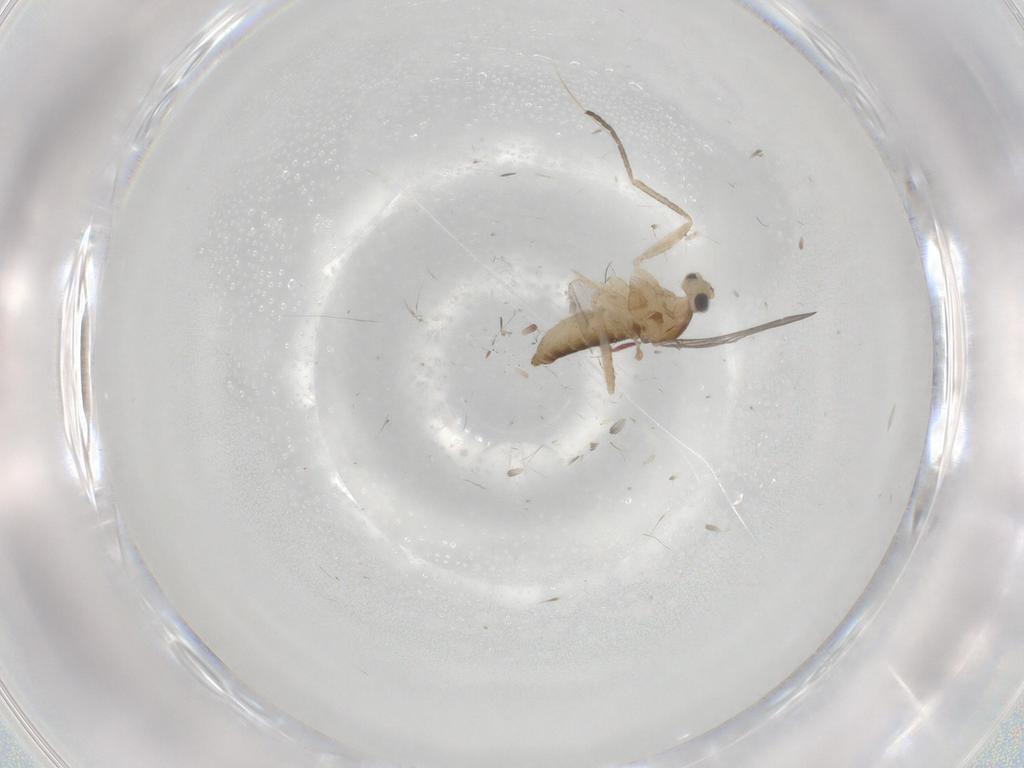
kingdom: Animalia
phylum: Arthropoda
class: Insecta
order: Diptera
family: Cecidomyiidae
